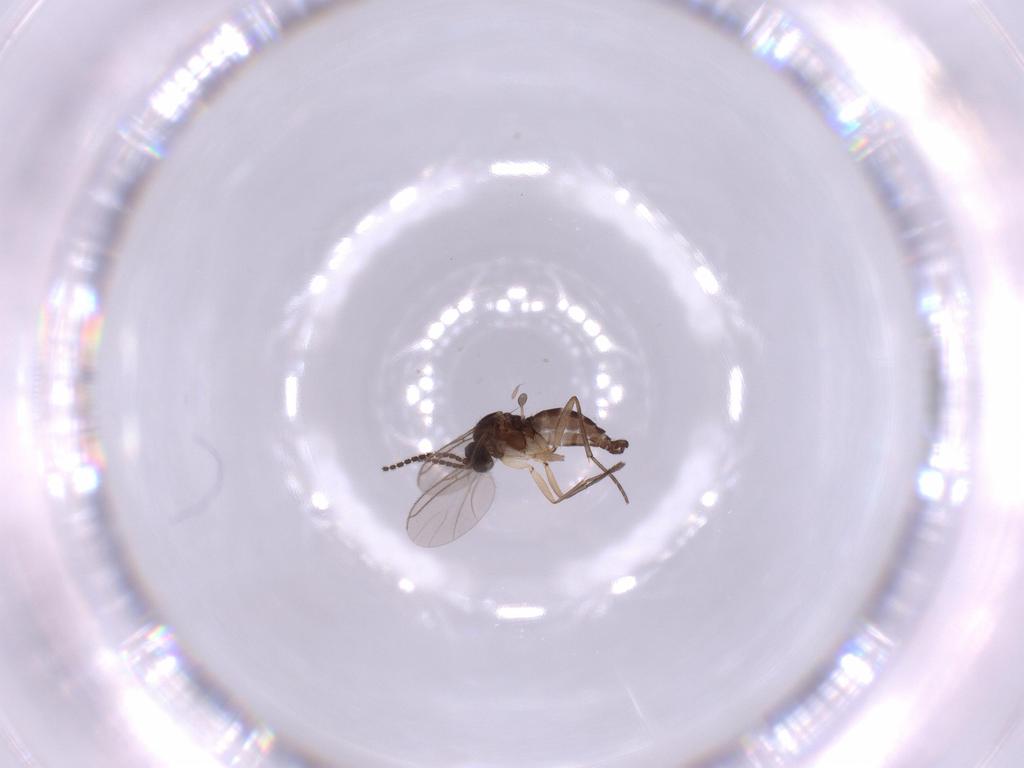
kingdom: Animalia
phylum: Arthropoda
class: Insecta
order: Diptera
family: Sciaridae
